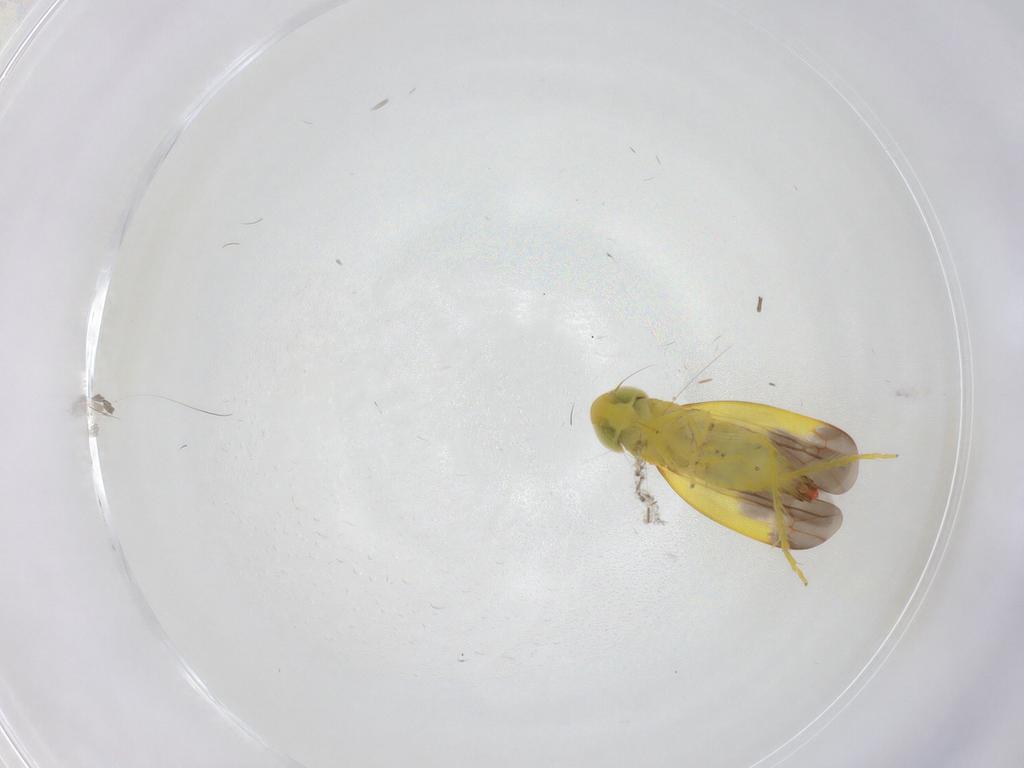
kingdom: Animalia
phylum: Arthropoda
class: Insecta
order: Hemiptera
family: Cicadellidae
